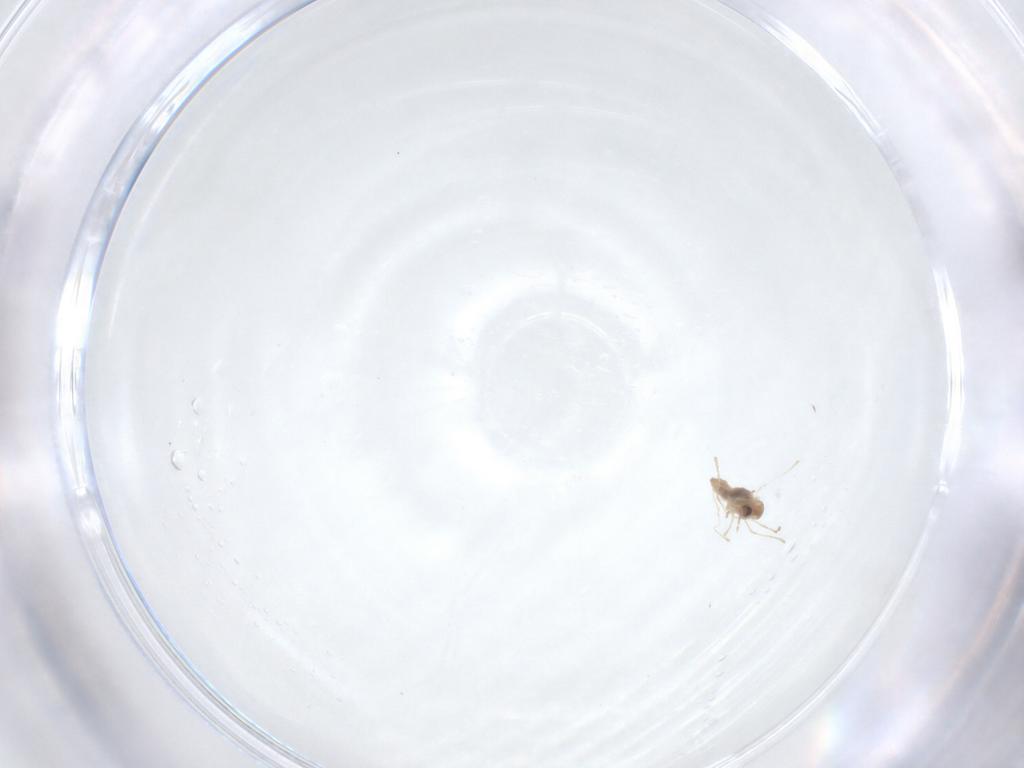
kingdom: Animalia
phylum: Arthropoda
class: Insecta
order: Diptera
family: Cecidomyiidae
